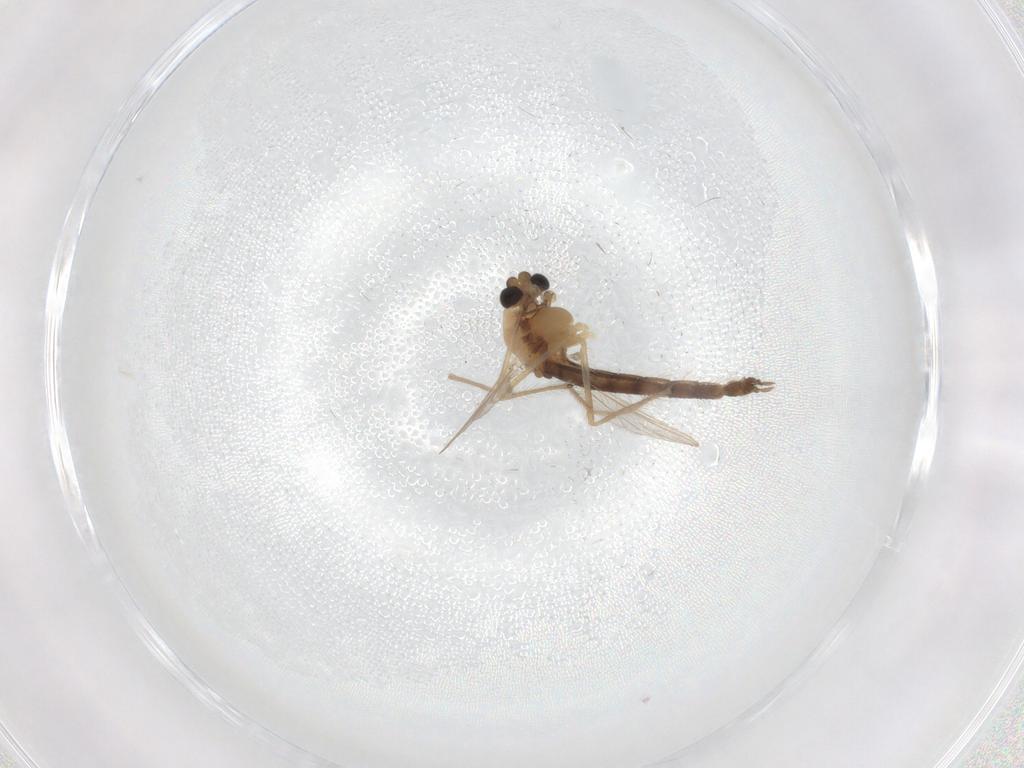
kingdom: Animalia
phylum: Arthropoda
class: Insecta
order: Diptera
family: Chironomidae
